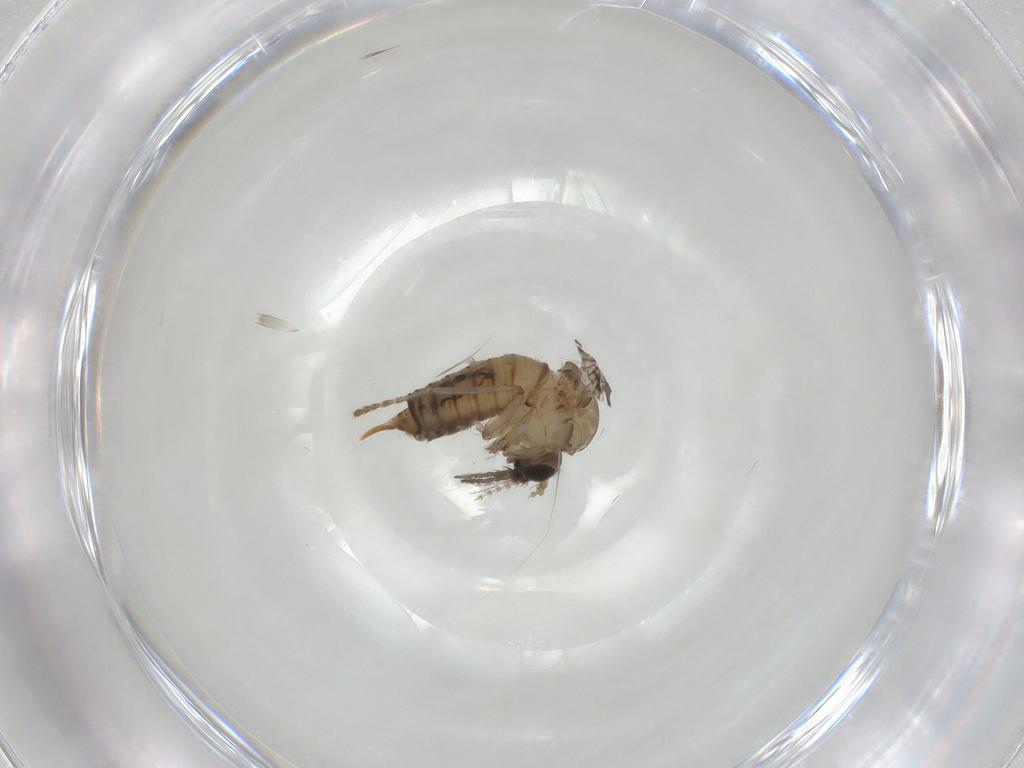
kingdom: Animalia
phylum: Arthropoda
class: Insecta
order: Diptera
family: Psychodidae
